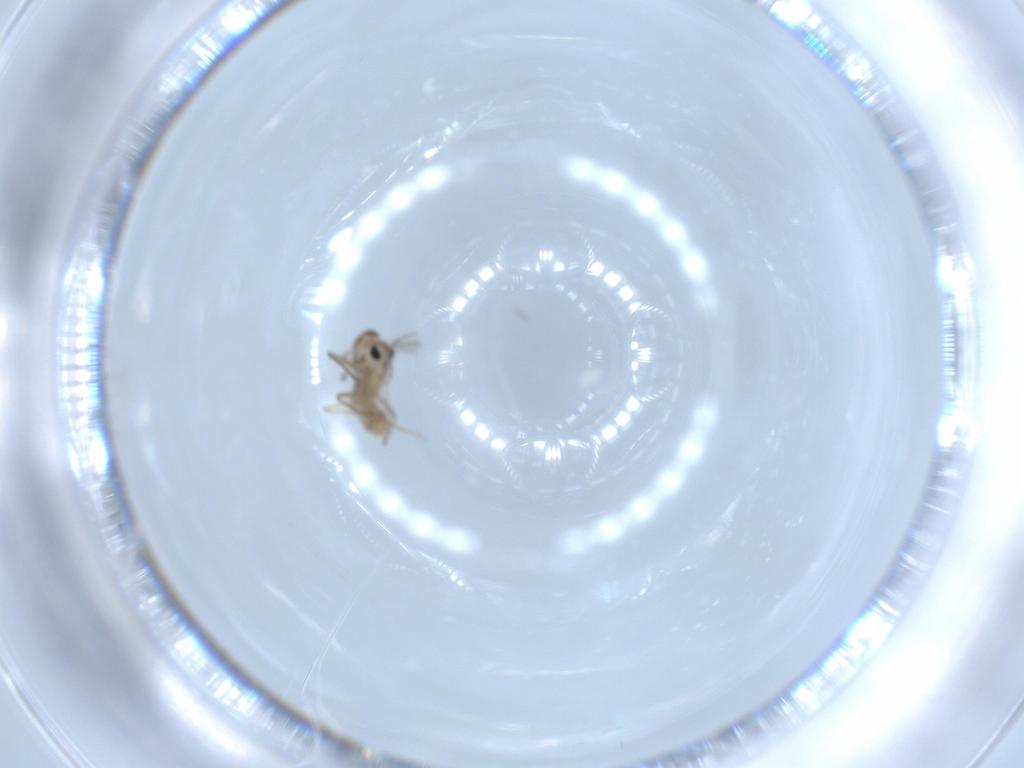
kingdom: Animalia
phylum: Arthropoda
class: Insecta
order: Diptera
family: Chironomidae
